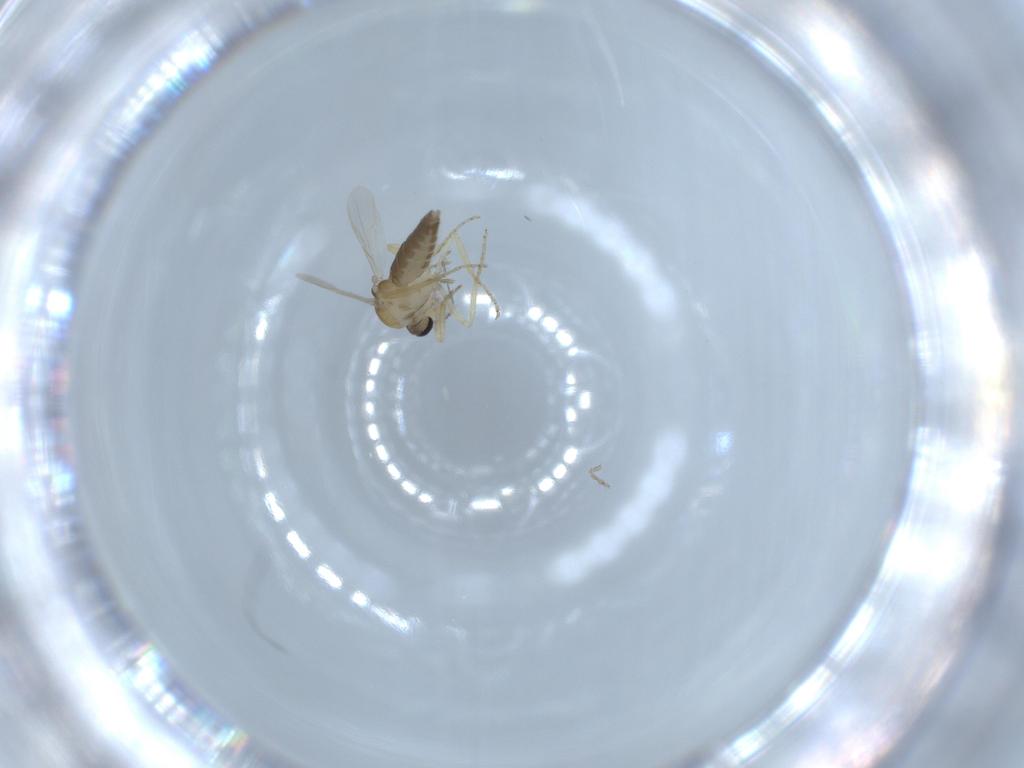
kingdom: Animalia
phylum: Arthropoda
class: Insecta
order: Diptera
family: Ceratopogonidae
